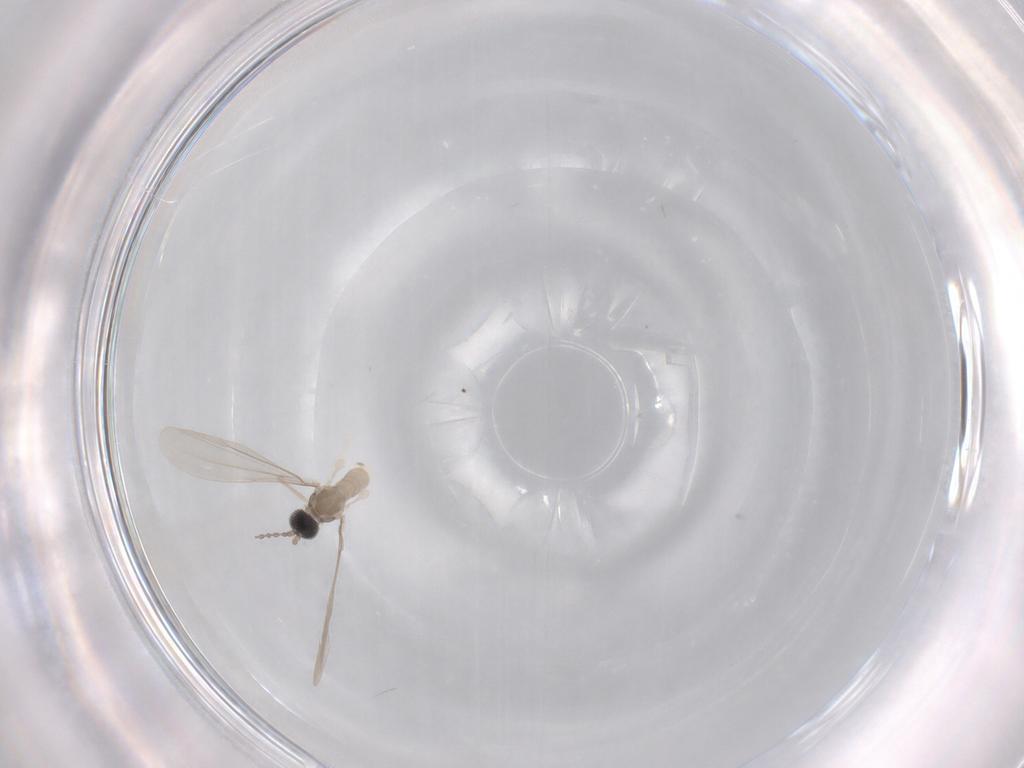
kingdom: Animalia
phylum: Arthropoda
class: Insecta
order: Diptera
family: Cecidomyiidae
